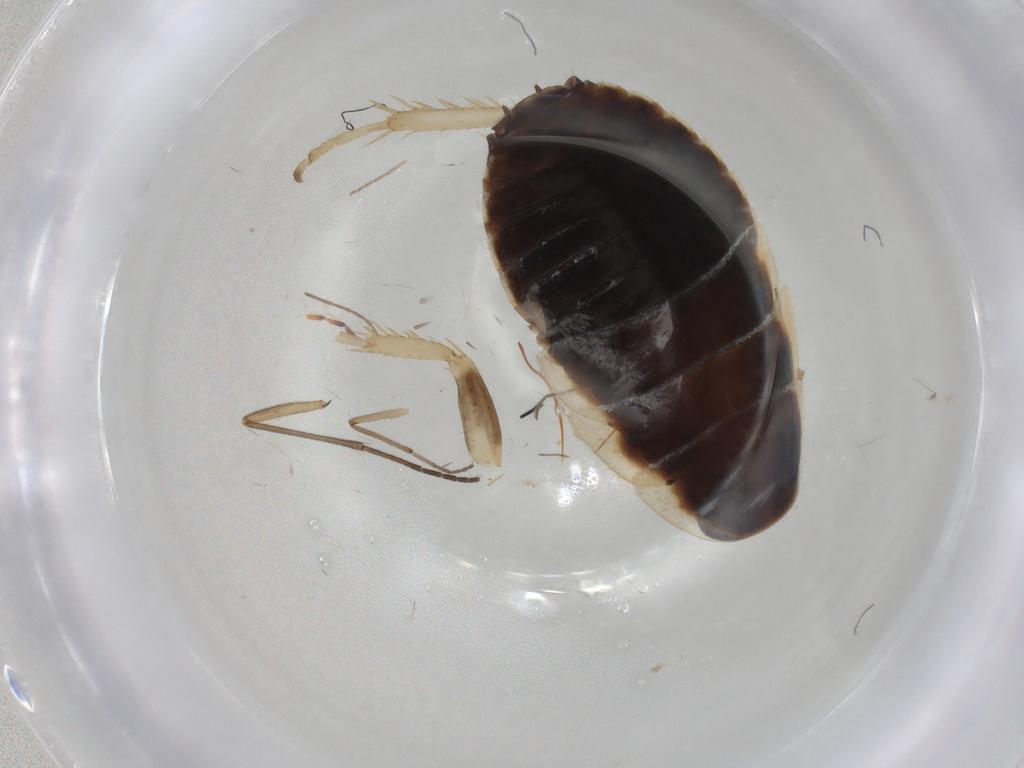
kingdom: Animalia
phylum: Arthropoda
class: Insecta
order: Blattodea
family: Ectobiidae
